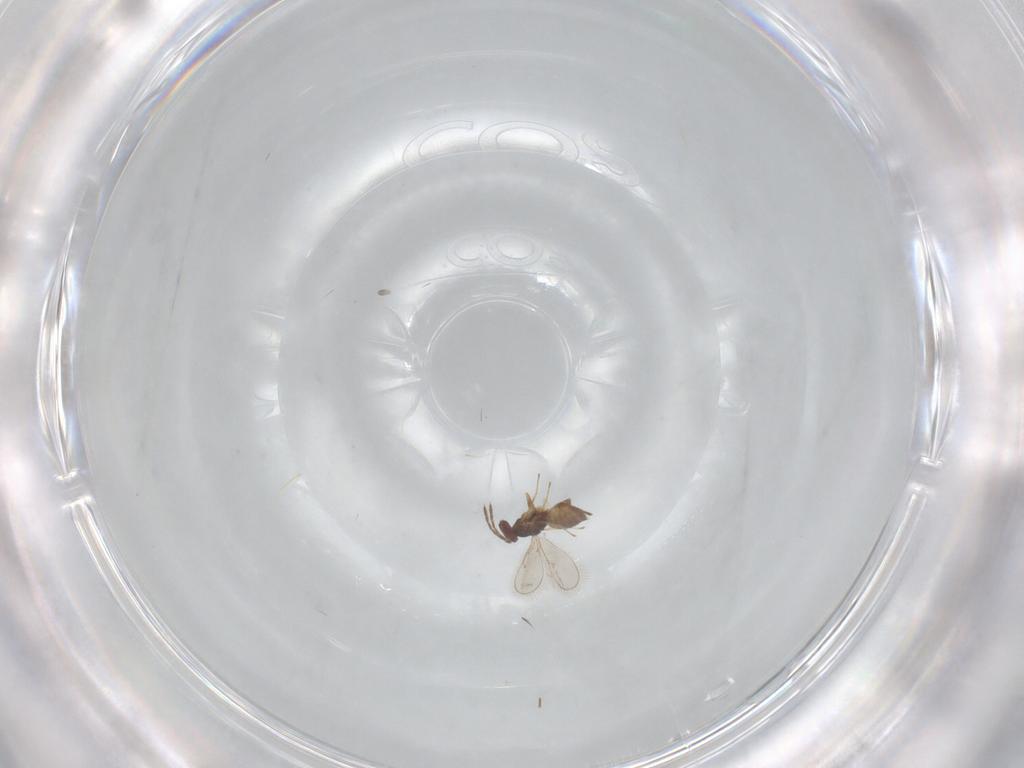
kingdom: Animalia
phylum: Arthropoda
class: Insecta
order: Hymenoptera
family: Eulophidae
